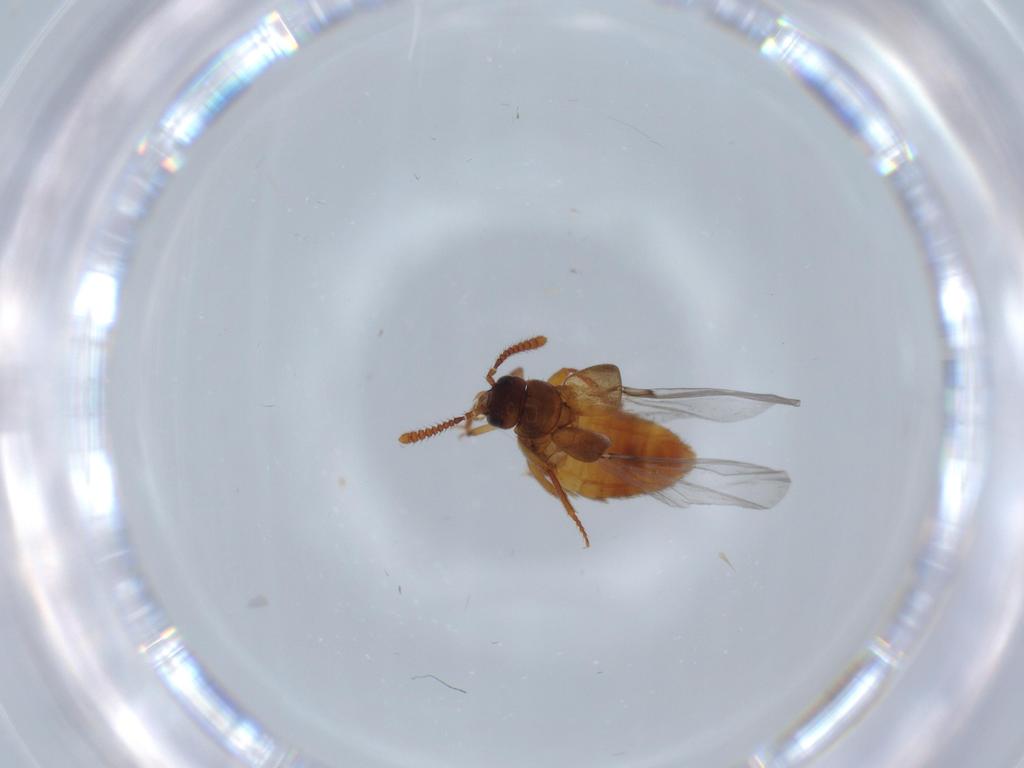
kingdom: Animalia
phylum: Arthropoda
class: Insecta
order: Coleoptera
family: Staphylinidae
